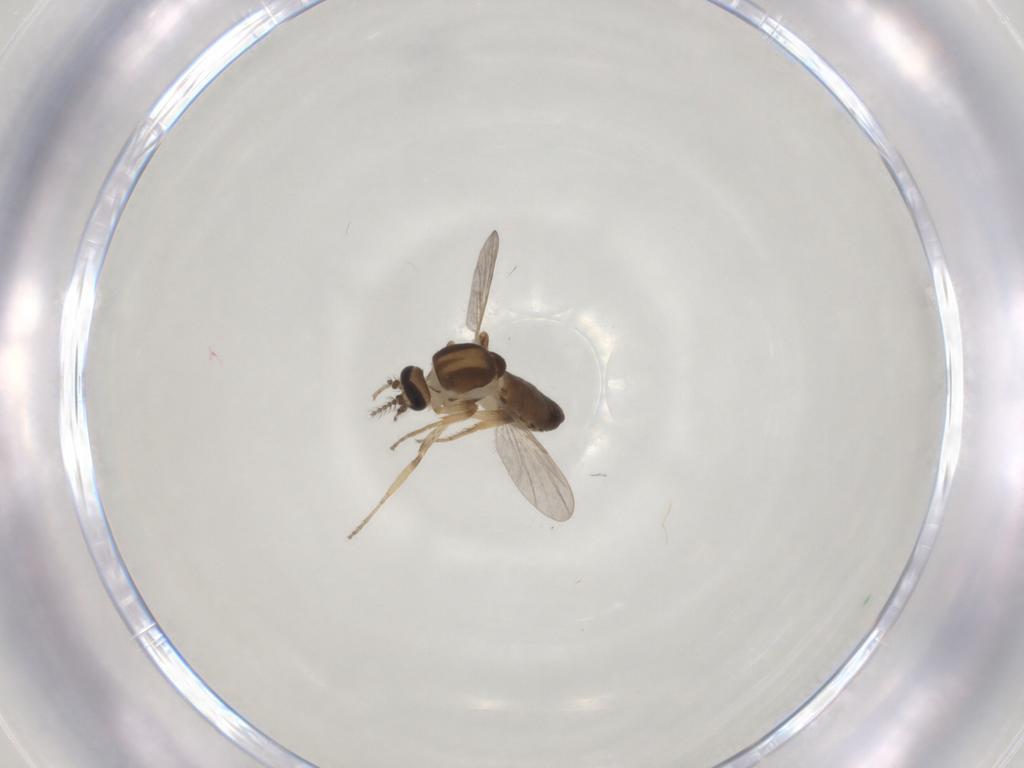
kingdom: Animalia
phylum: Arthropoda
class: Insecta
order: Diptera
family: Ceratopogonidae
